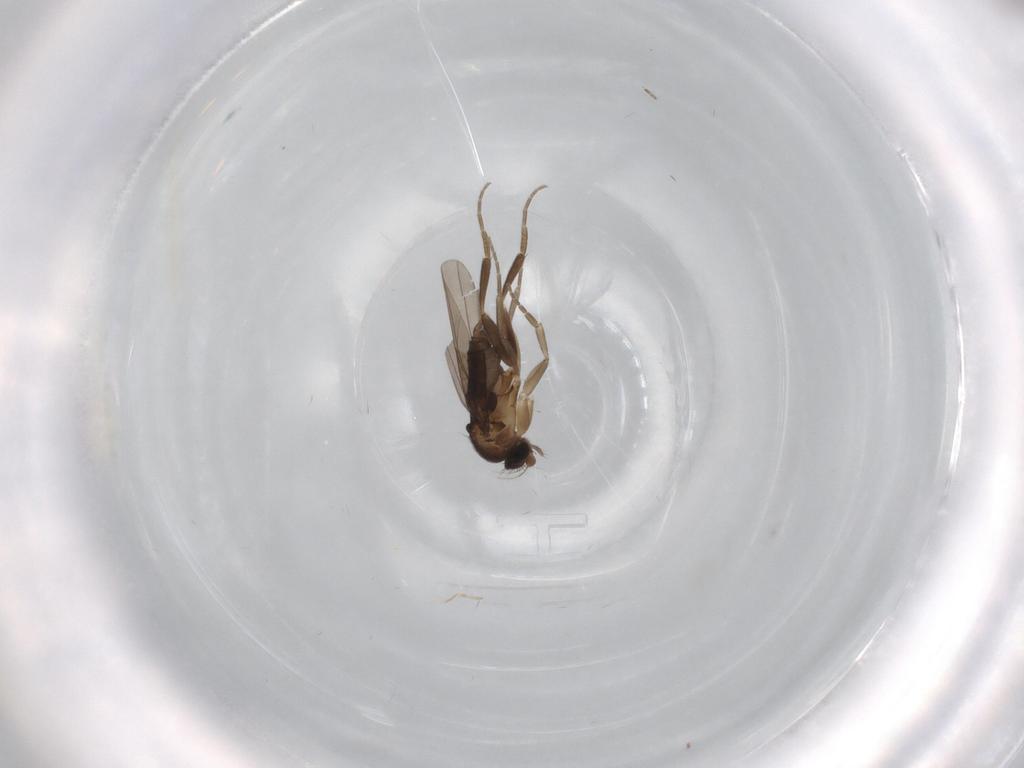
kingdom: Animalia
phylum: Arthropoda
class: Insecta
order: Diptera
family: Phoridae
